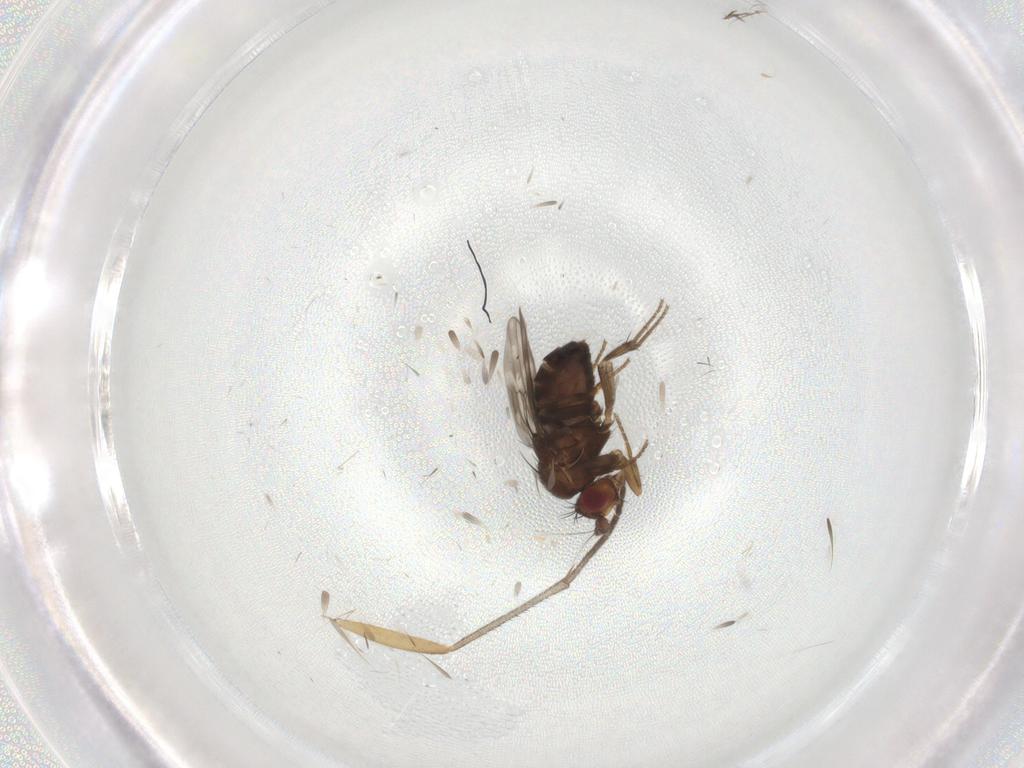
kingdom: Animalia
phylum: Arthropoda
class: Insecta
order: Diptera
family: Sphaeroceridae
